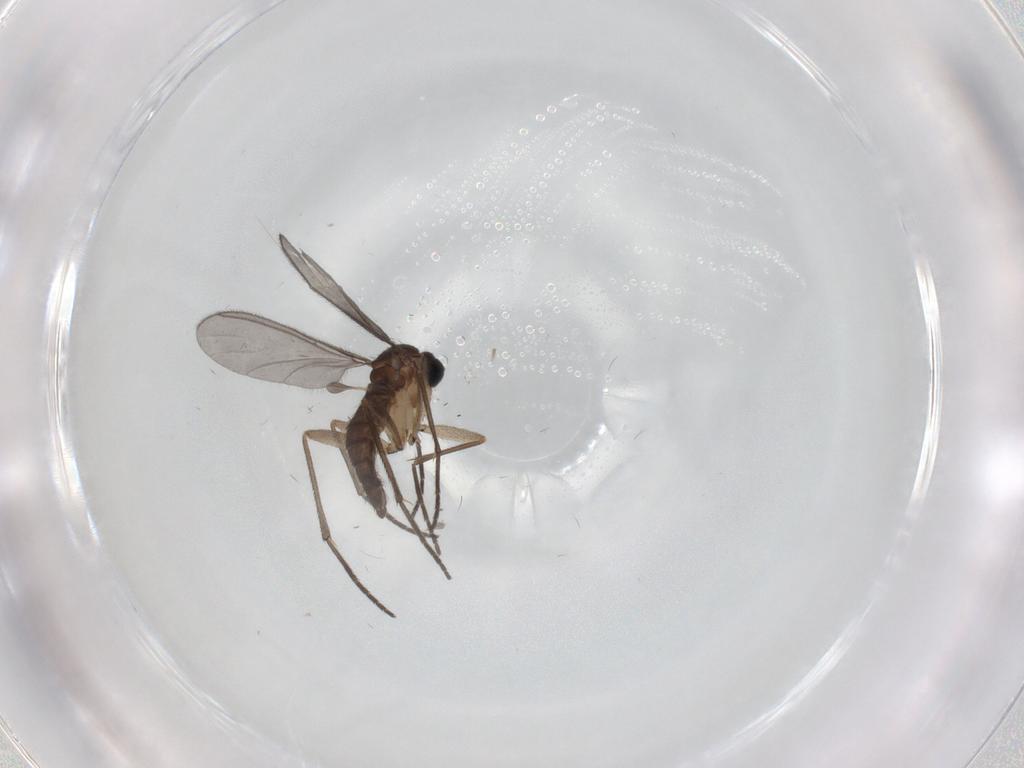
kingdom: Animalia
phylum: Arthropoda
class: Insecta
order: Diptera
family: Sciaridae
